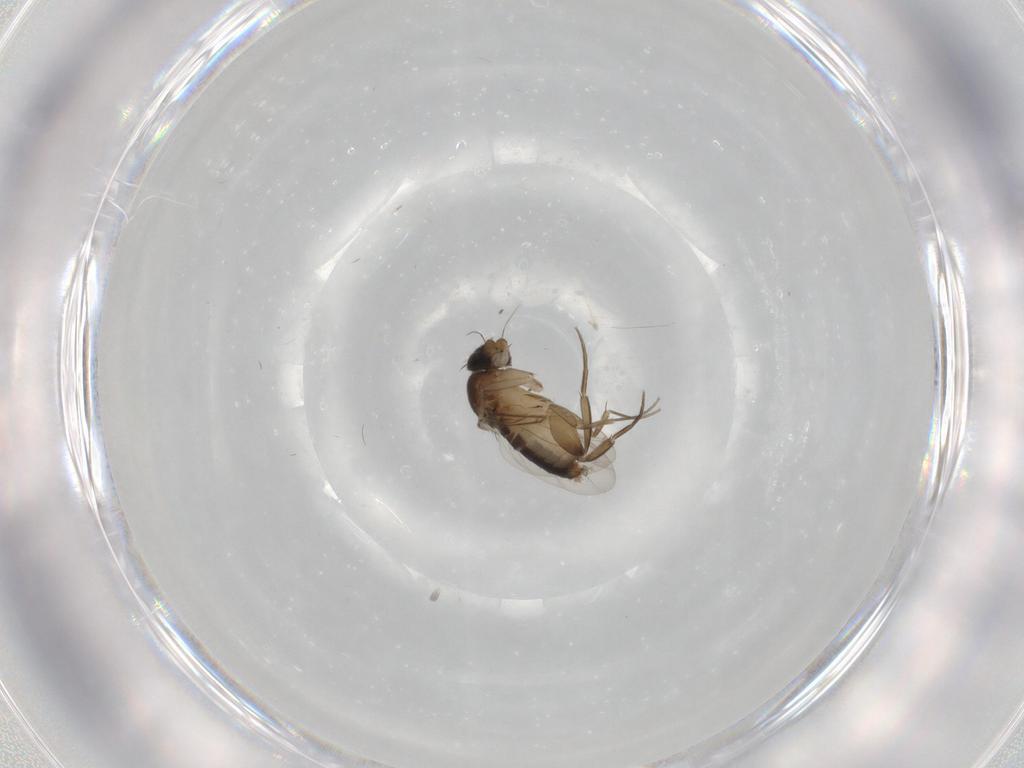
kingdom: Animalia
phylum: Arthropoda
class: Insecta
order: Diptera
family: Phoridae
